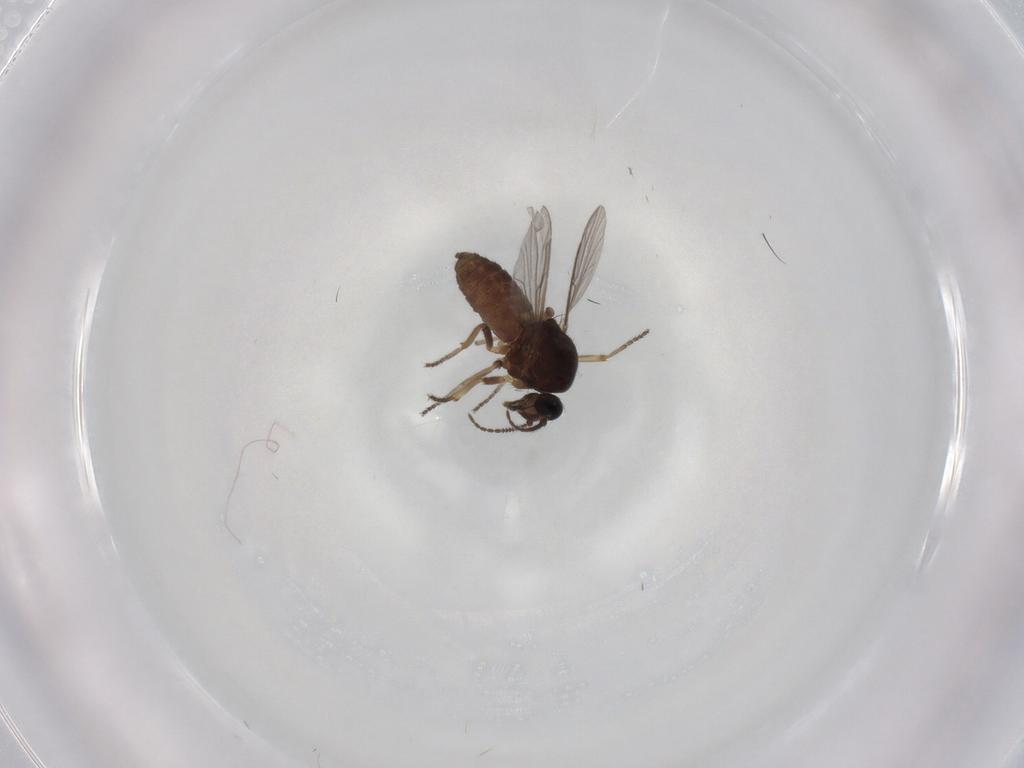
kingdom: Animalia
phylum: Arthropoda
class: Insecta
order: Diptera
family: Ceratopogonidae
